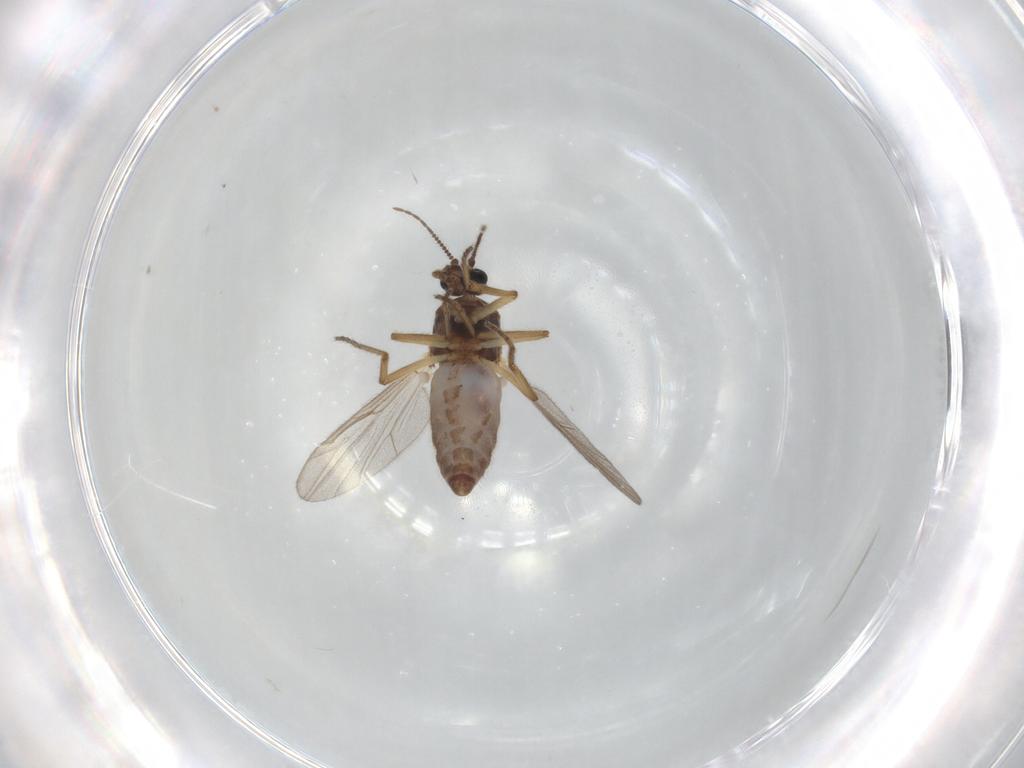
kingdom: Animalia
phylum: Arthropoda
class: Insecta
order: Diptera
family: Ceratopogonidae
